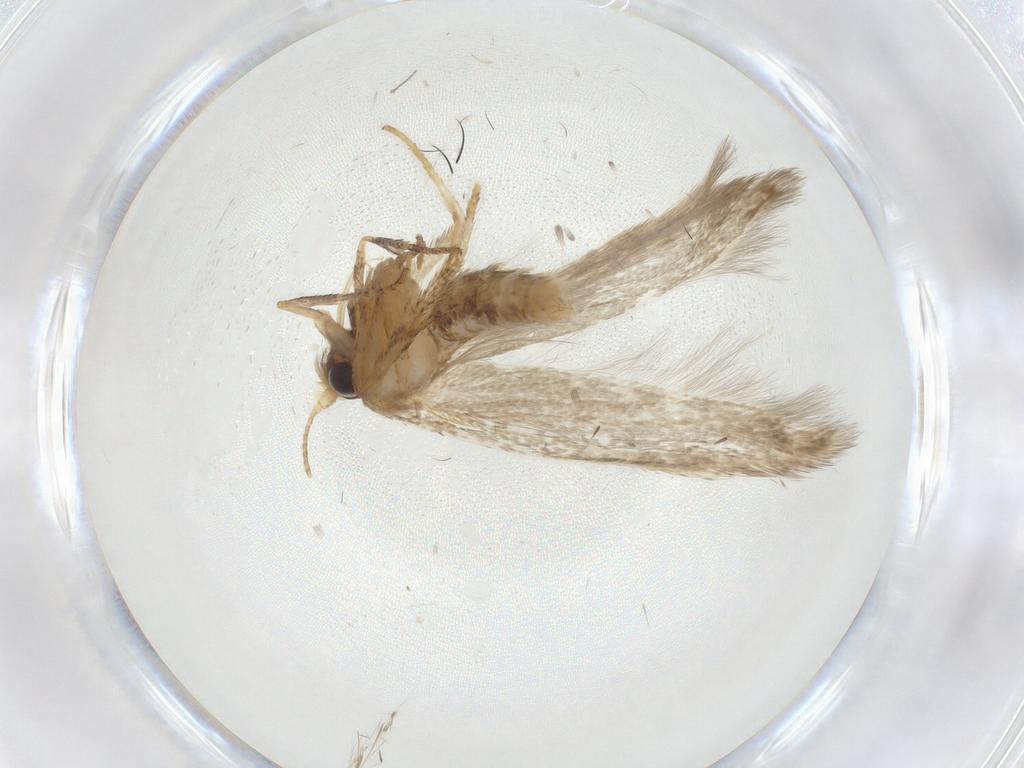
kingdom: Animalia
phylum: Arthropoda
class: Insecta
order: Lepidoptera
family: Blastobasidae
